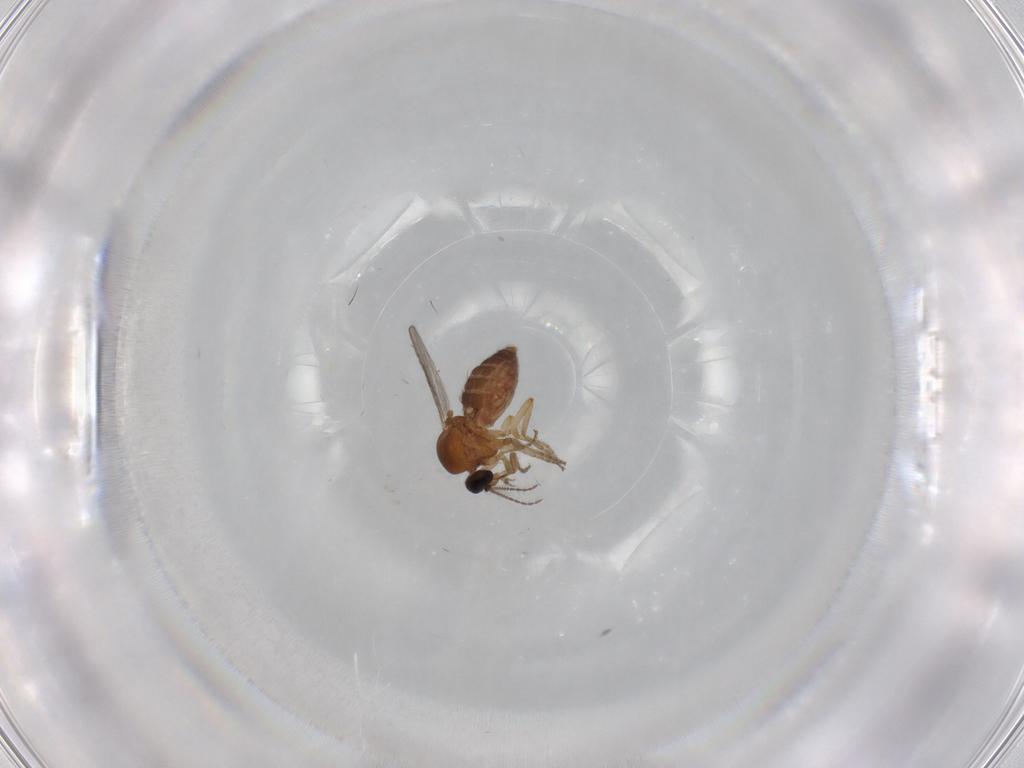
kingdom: Animalia
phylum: Arthropoda
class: Insecta
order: Diptera
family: Ceratopogonidae
